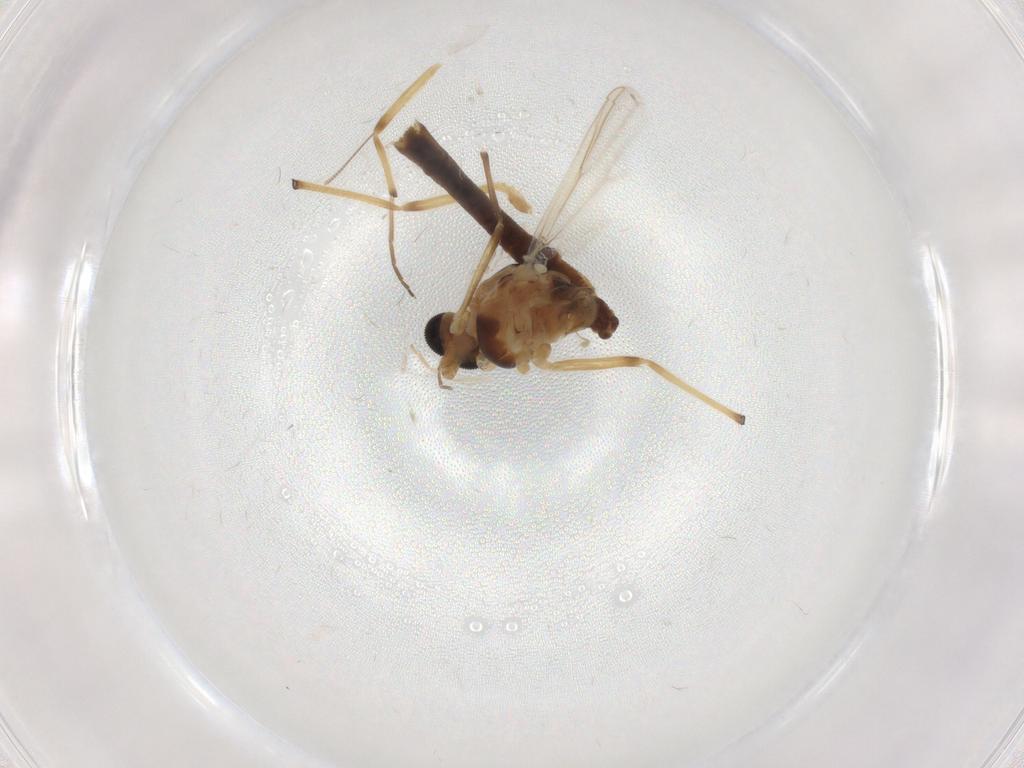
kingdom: Animalia
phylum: Arthropoda
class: Insecta
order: Diptera
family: Chironomidae
